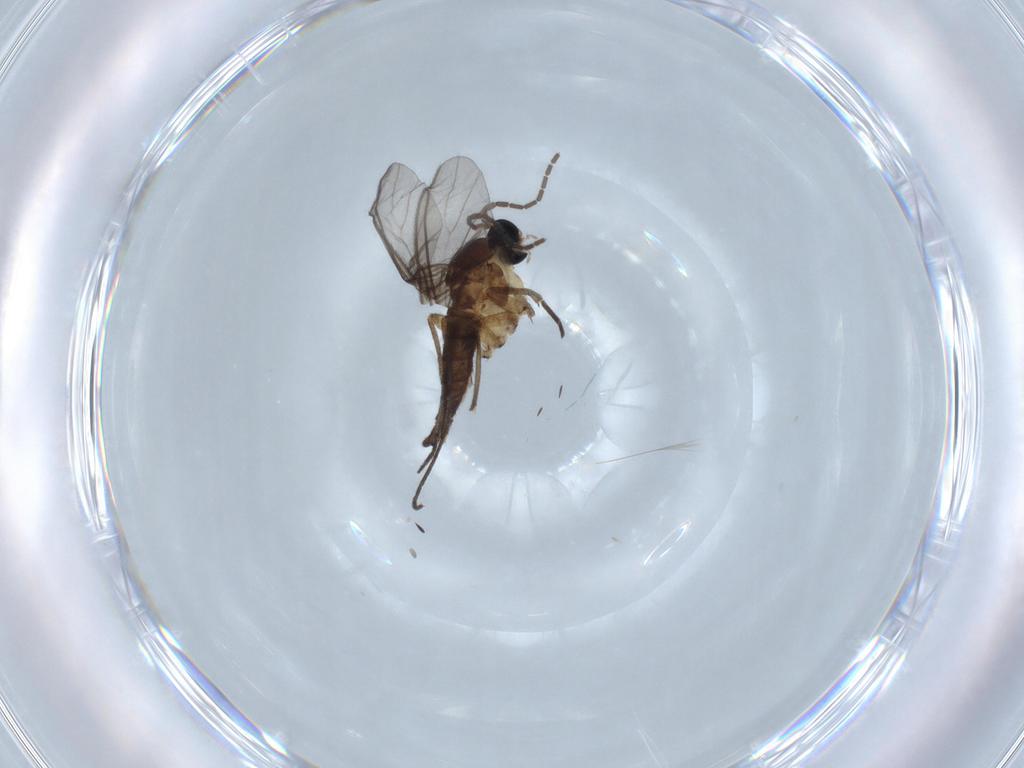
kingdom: Animalia
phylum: Arthropoda
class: Insecta
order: Diptera
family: Sciaridae
